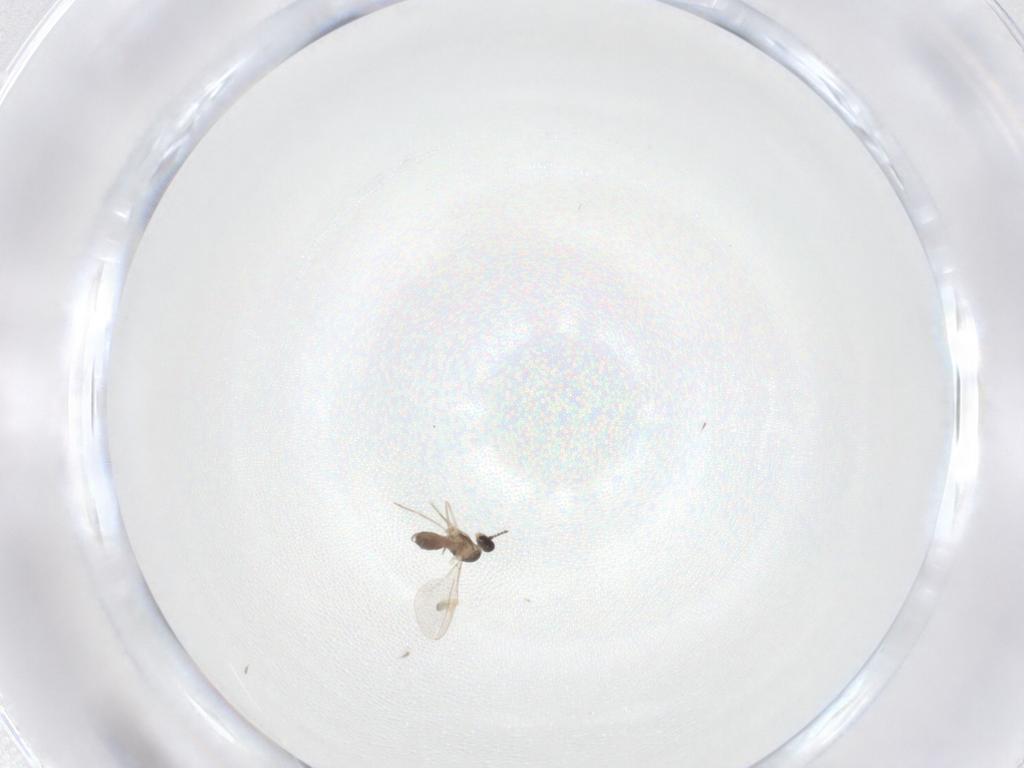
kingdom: Animalia
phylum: Arthropoda
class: Insecta
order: Diptera
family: Cecidomyiidae
